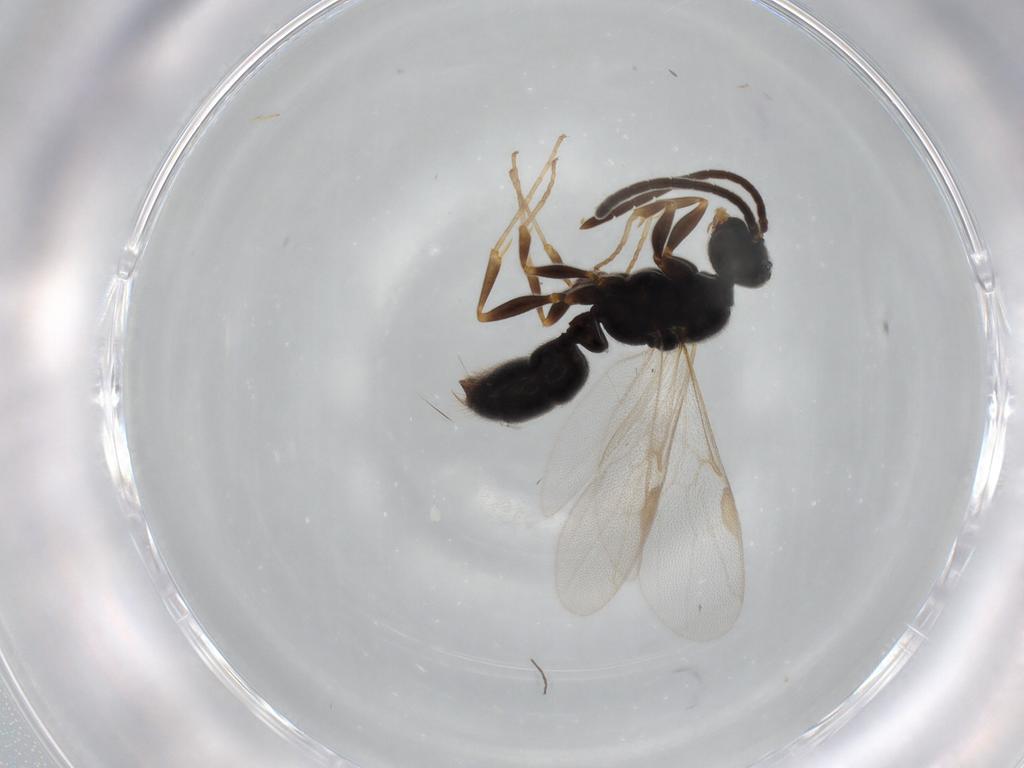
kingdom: Animalia
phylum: Arthropoda
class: Insecta
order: Hymenoptera
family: Formicidae
